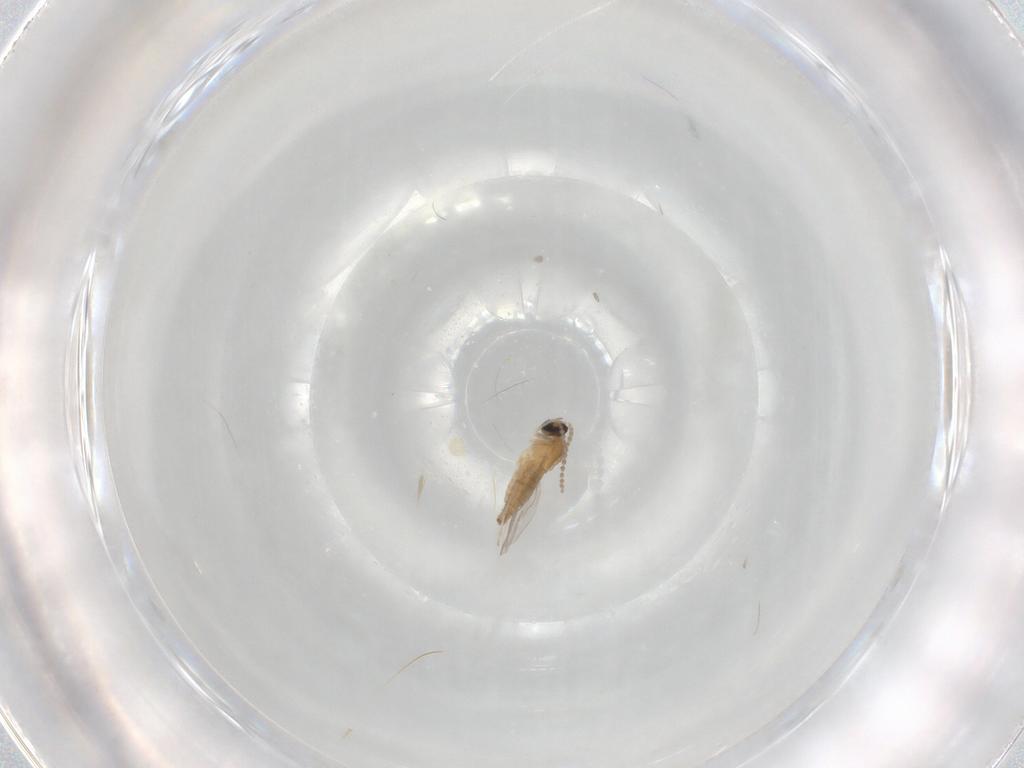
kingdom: Animalia
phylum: Arthropoda
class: Insecta
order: Diptera
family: Cecidomyiidae
